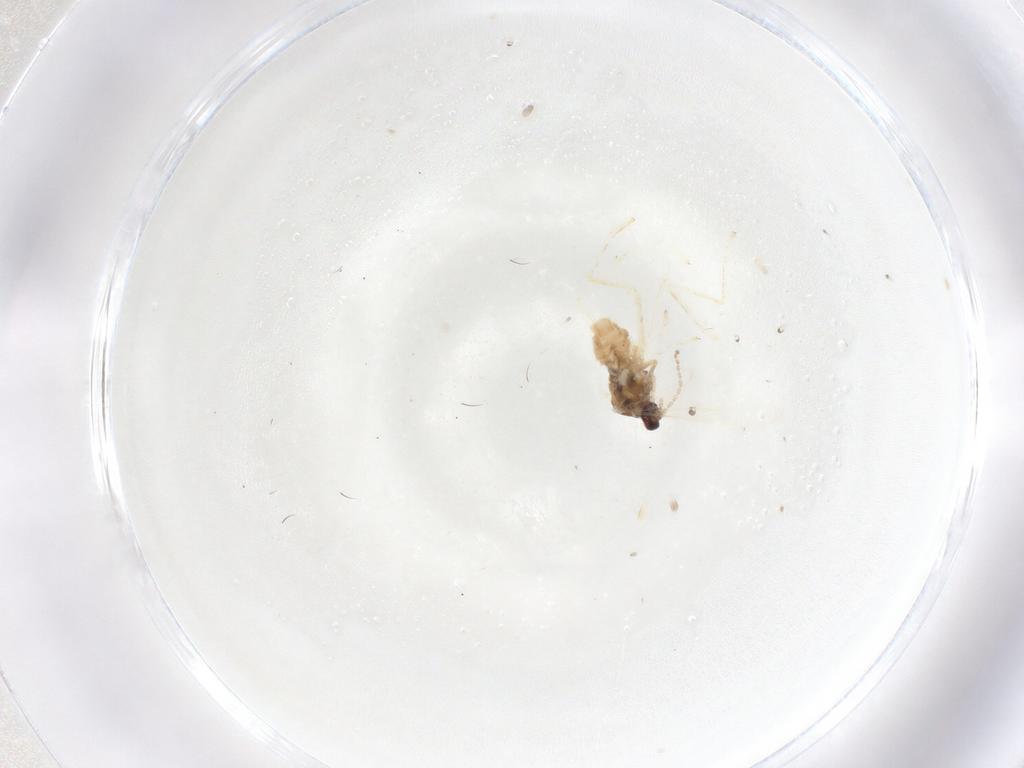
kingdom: Animalia
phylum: Arthropoda
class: Insecta
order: Diptera
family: Cecidomyiidae
